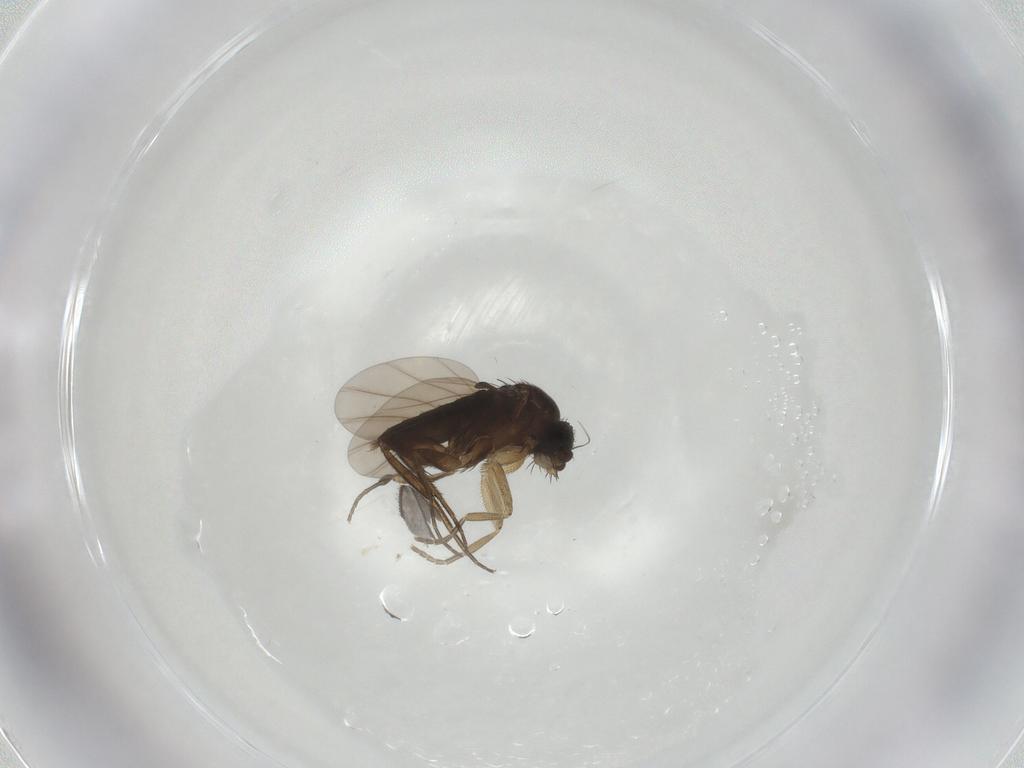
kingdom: Animalia
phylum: Arthropoda
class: Insecta
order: Diptera
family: Phoridae
